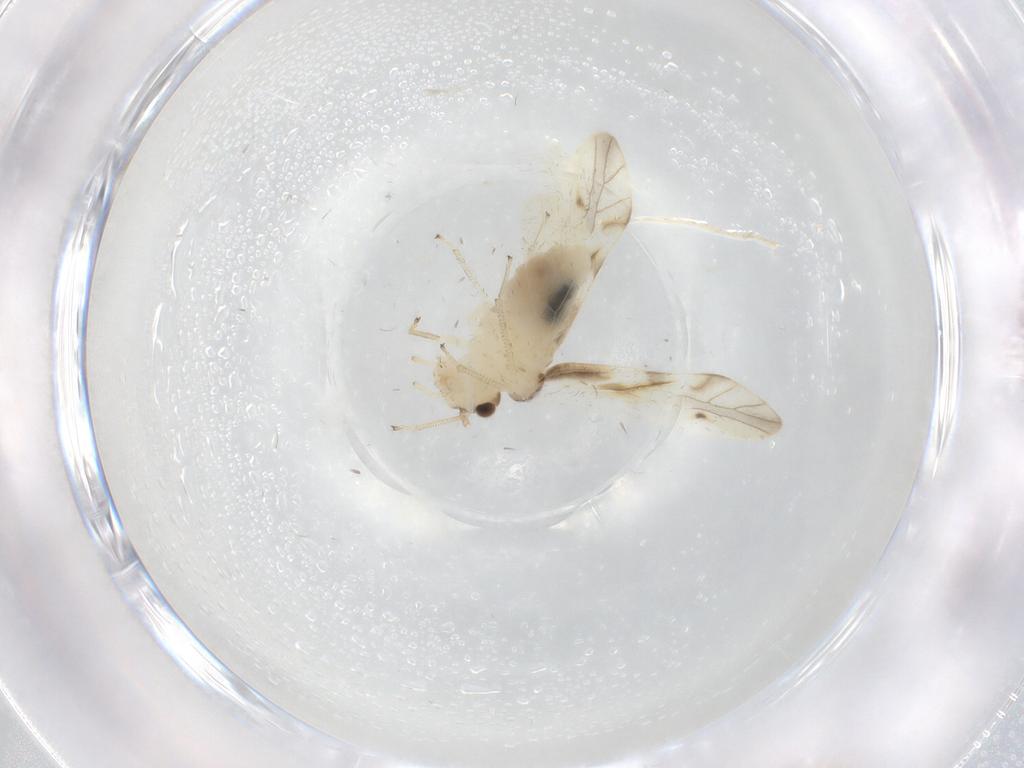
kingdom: Animalia
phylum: Arthropoda
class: Insecta
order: Psocodea
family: Caeciliusidae
